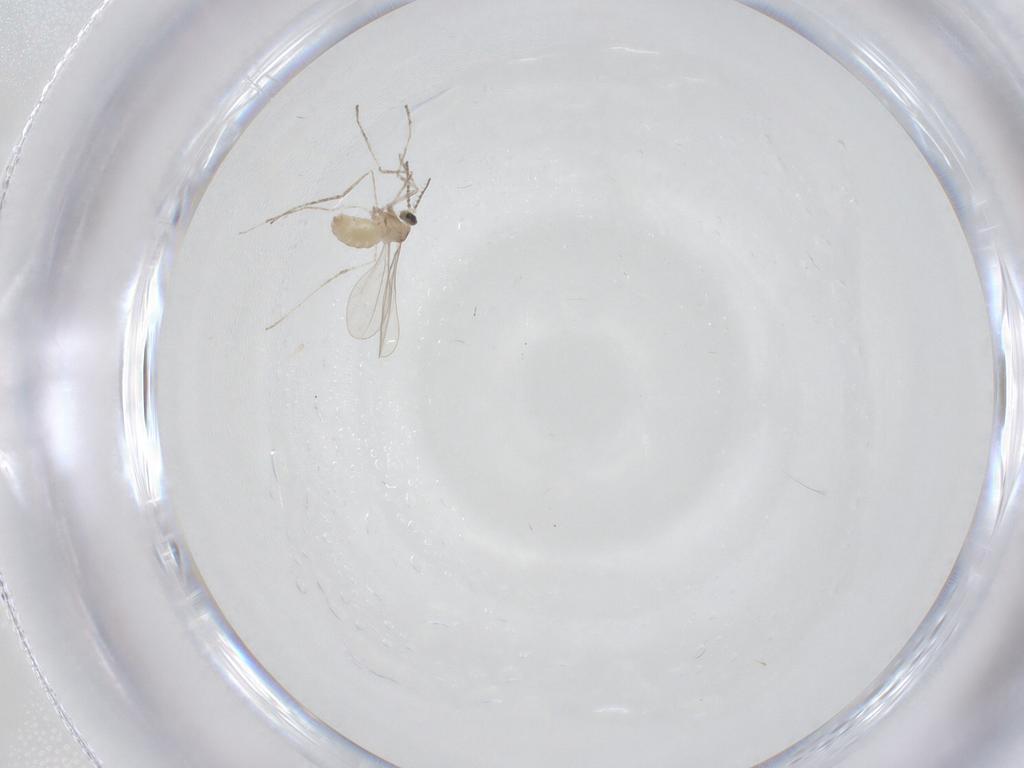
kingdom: Animalia
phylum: Arthropoda
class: Insecta
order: Diptera
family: Cecidomyiidae
